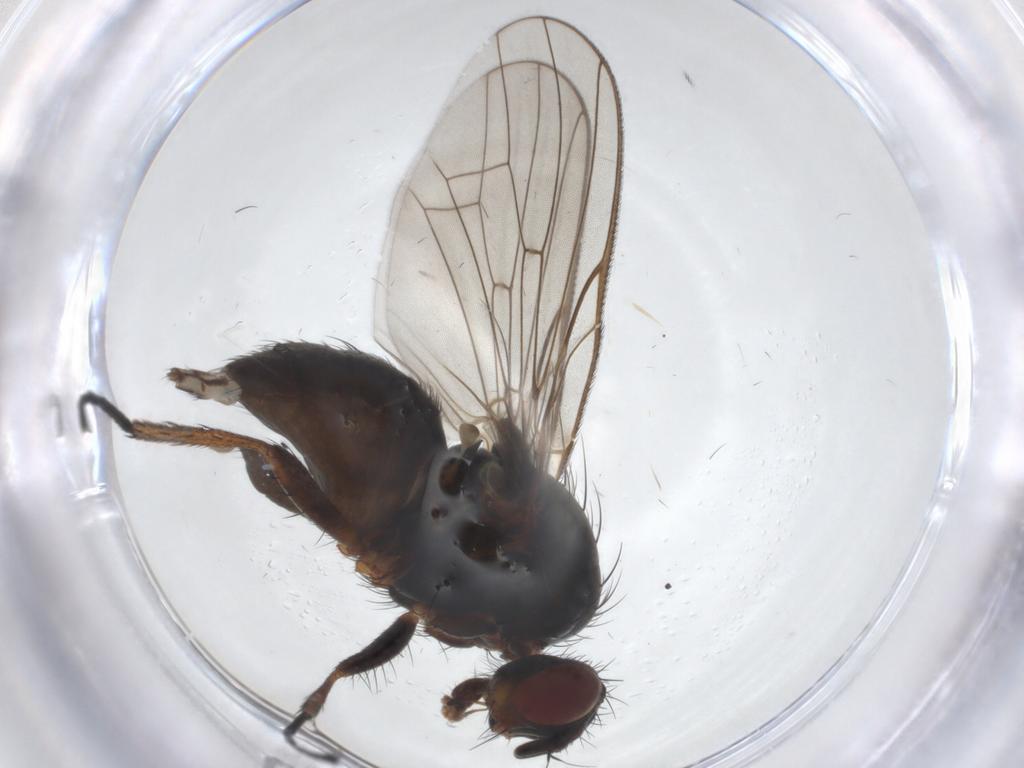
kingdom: Animalia
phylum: Arthropoda
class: Insecta
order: Diptera
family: Anthomyiidae
